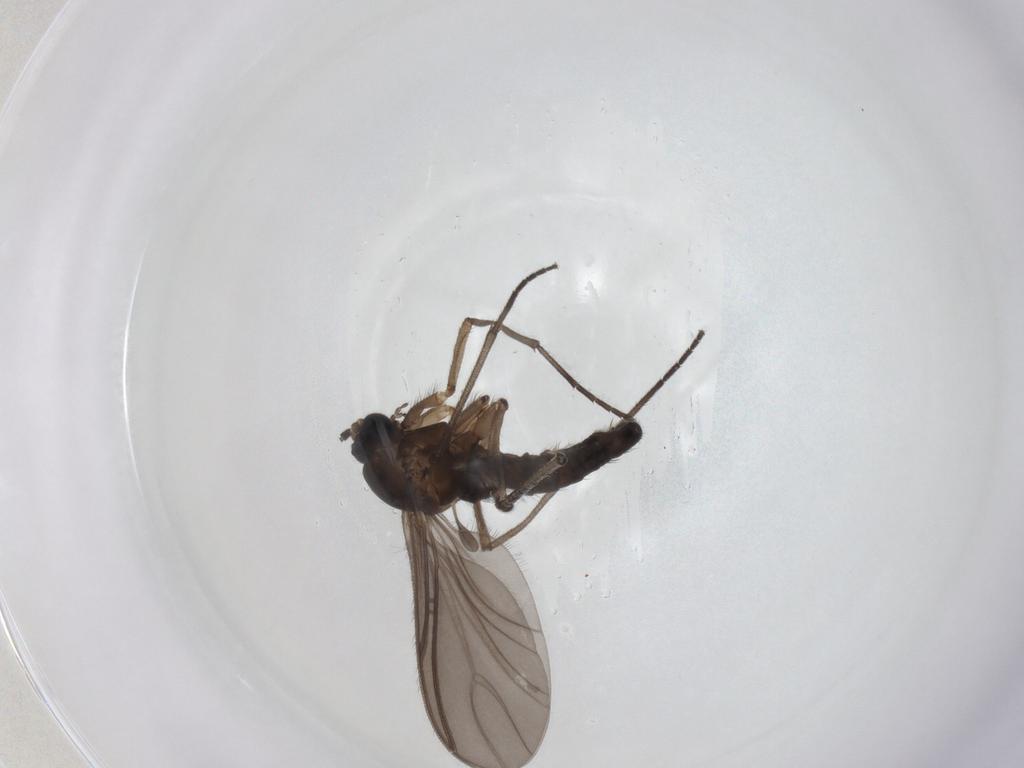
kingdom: Animalia
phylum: Arthropoda
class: Insecta
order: Diptera
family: Sciaridae
